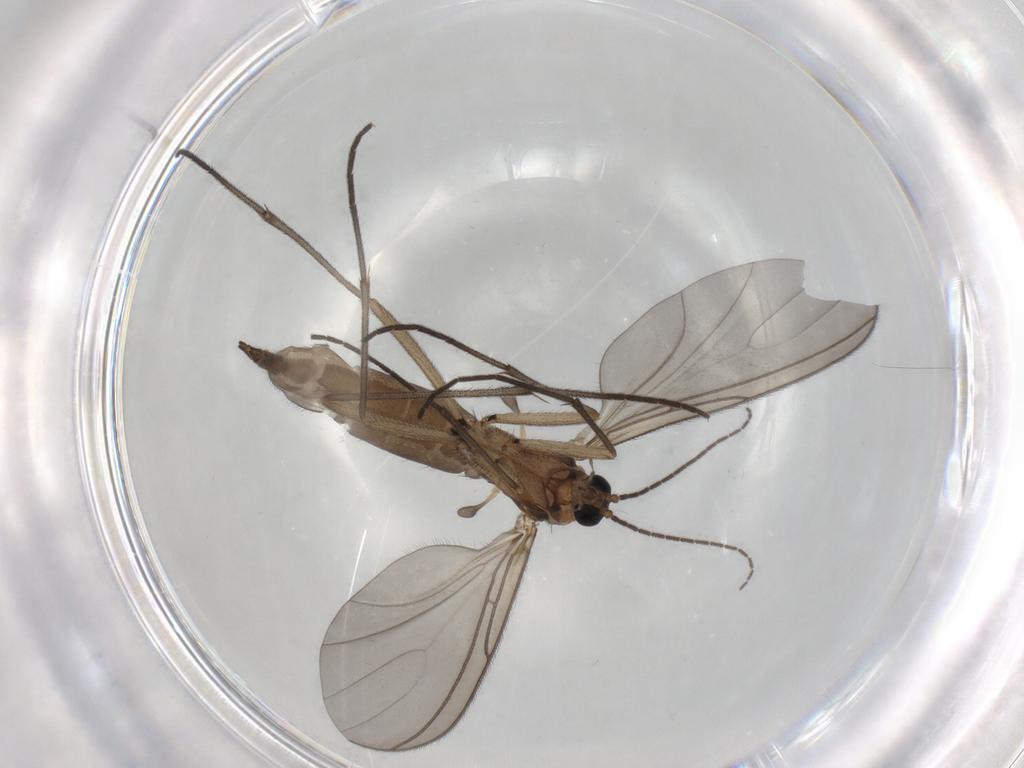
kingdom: Animalia
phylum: Arthropoda
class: Insecta
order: Diptera
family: Sciaridae
